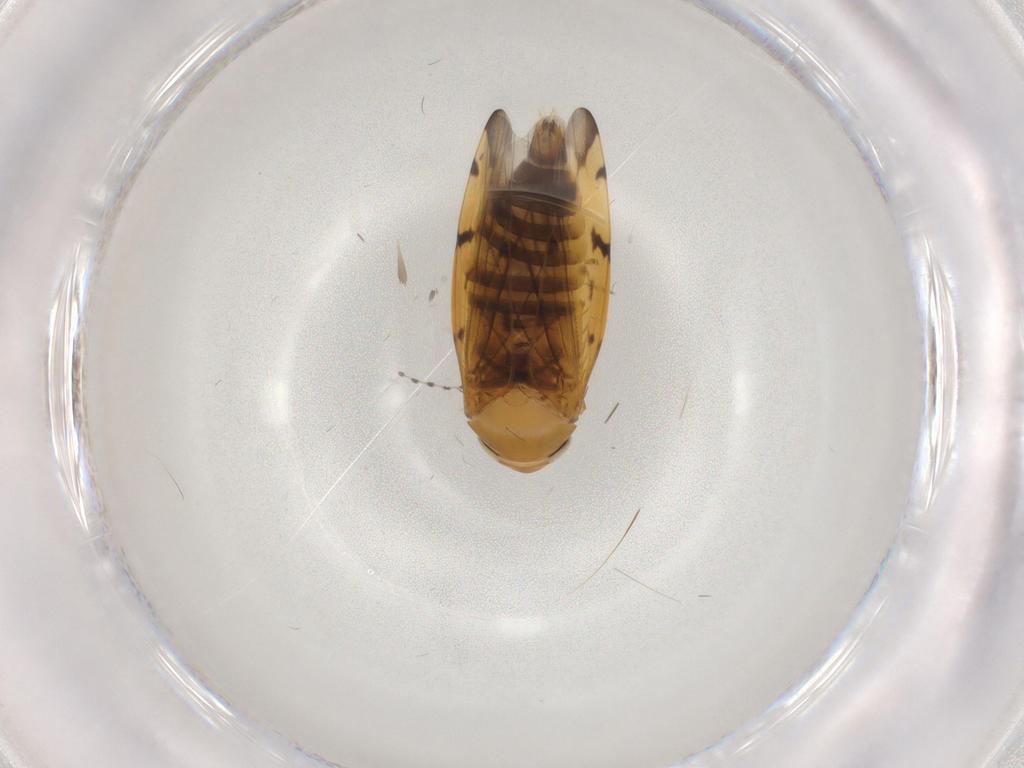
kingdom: Animalia
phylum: Arthropoda
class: Insecta
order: Hemiptera
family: Cicadellidae
